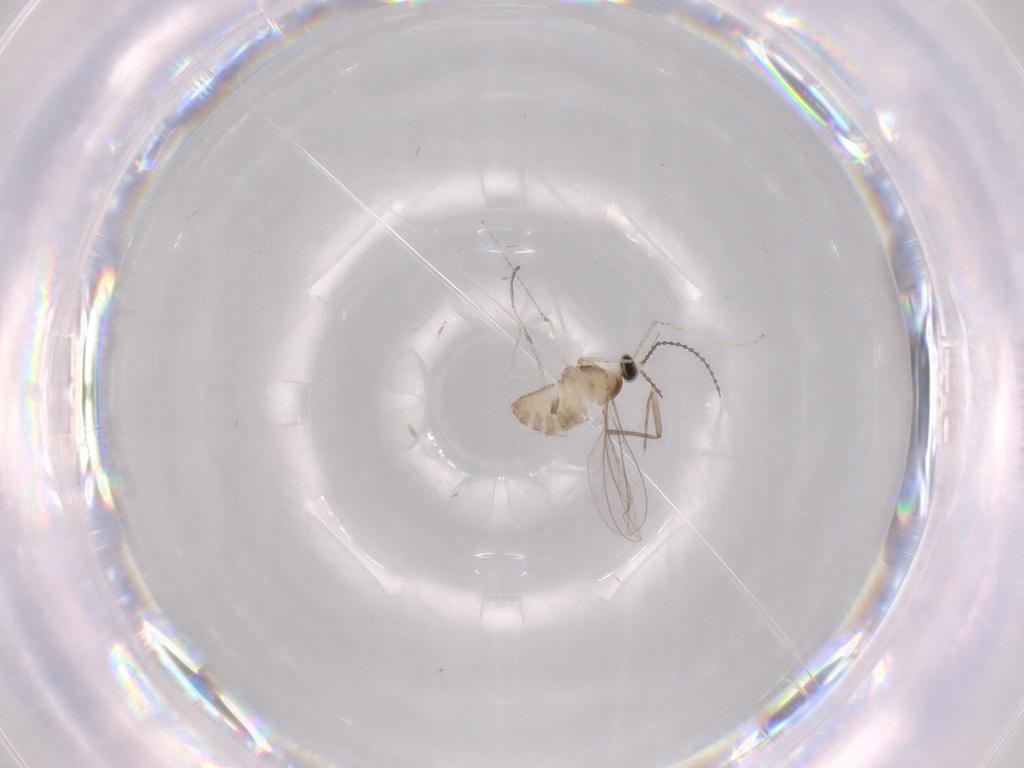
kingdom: Animalia
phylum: Arthropoda
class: Insecta
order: Diptera
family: Cecidomyiidae
